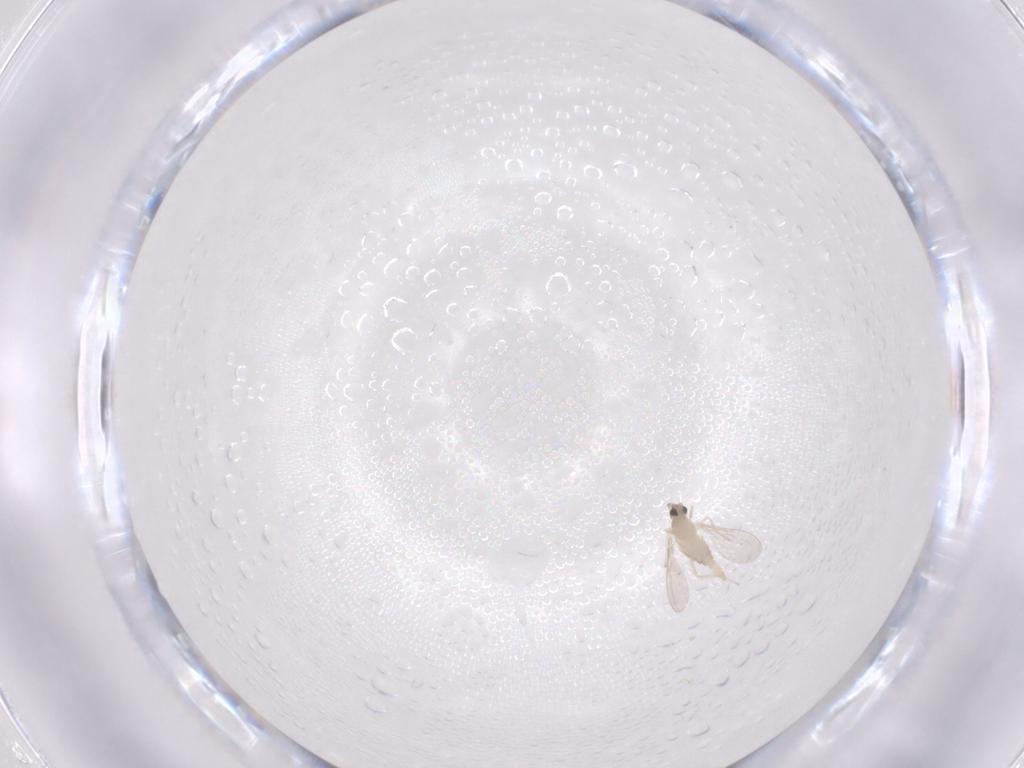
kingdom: Animalia
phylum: Arthropoda
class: Insecta
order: Diptera
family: Cecidomyiidae
